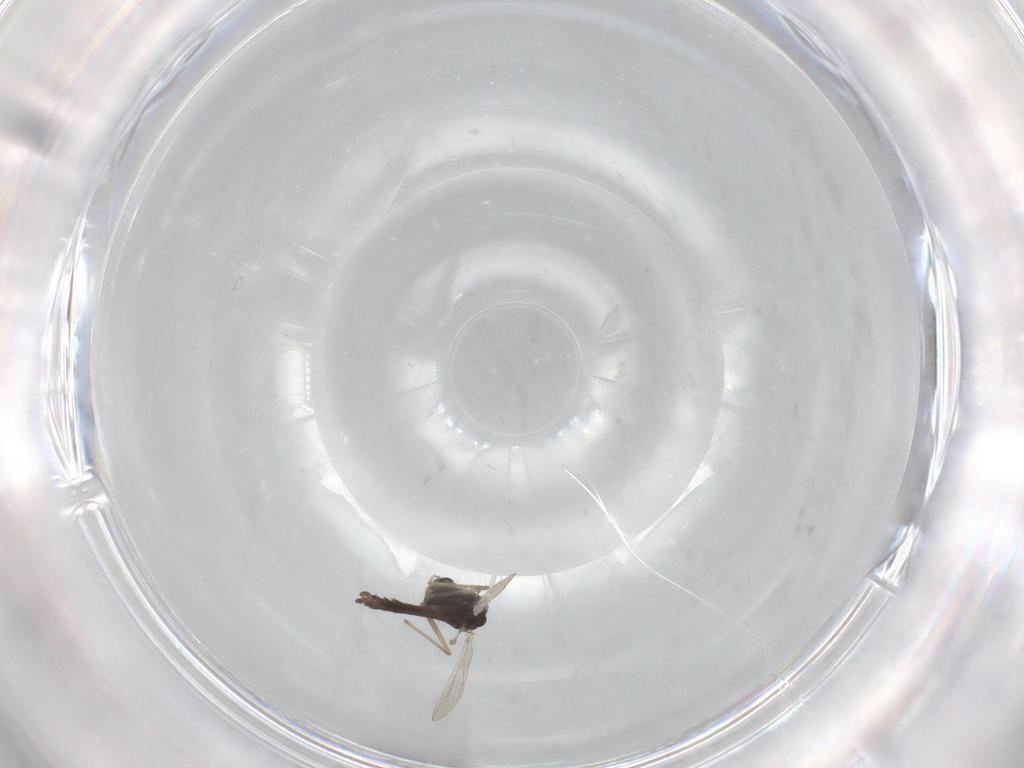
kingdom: Animalia
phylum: Arthropoda
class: Insecta
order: Diptera
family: Chironomidae
